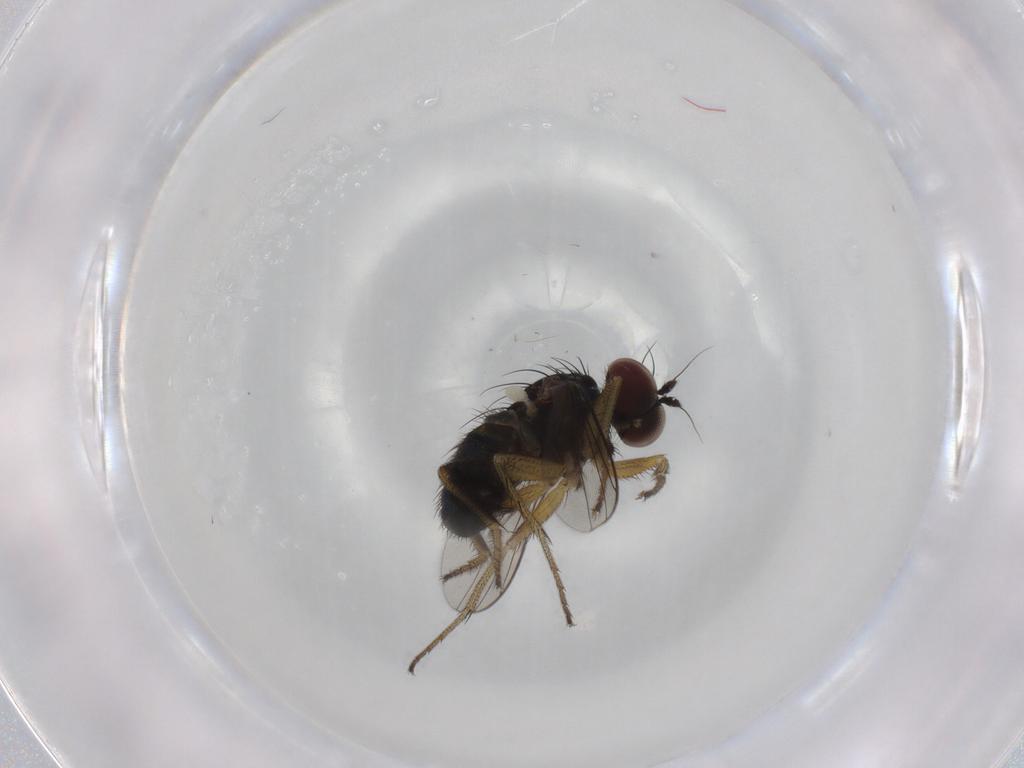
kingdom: Animalia
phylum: Arthropoda
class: Insecta
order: Diptera
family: Dolichopodidae
